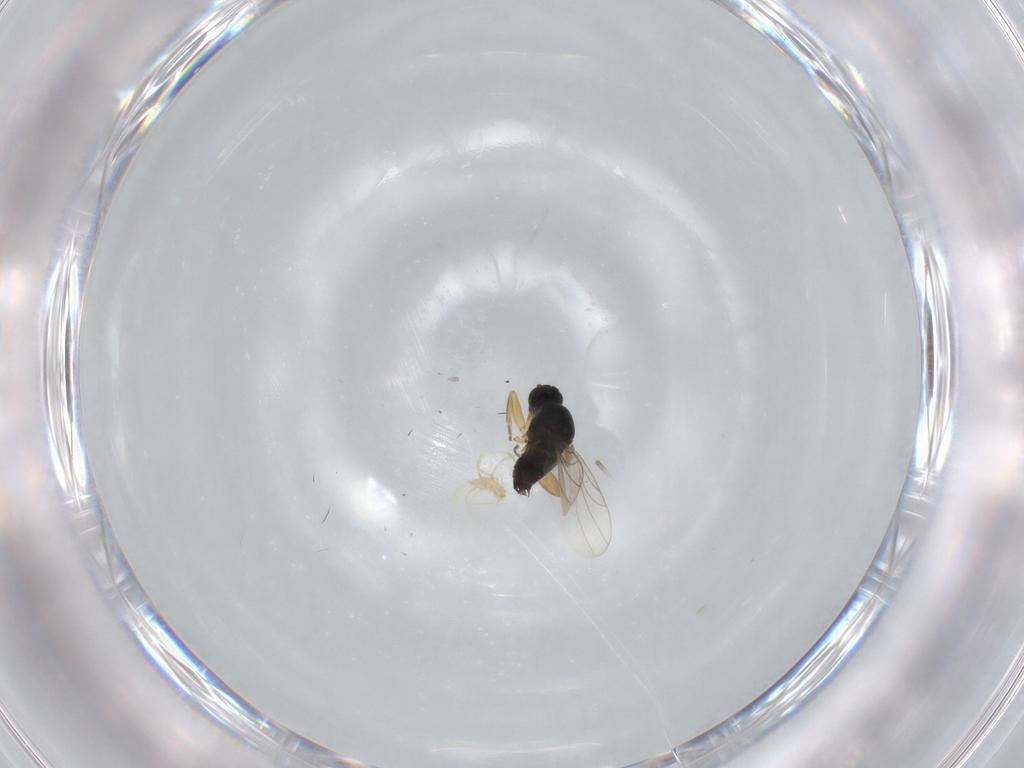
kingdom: Animalia
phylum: Arthropoda
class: Insecta
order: Diptera
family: Hybotidae
